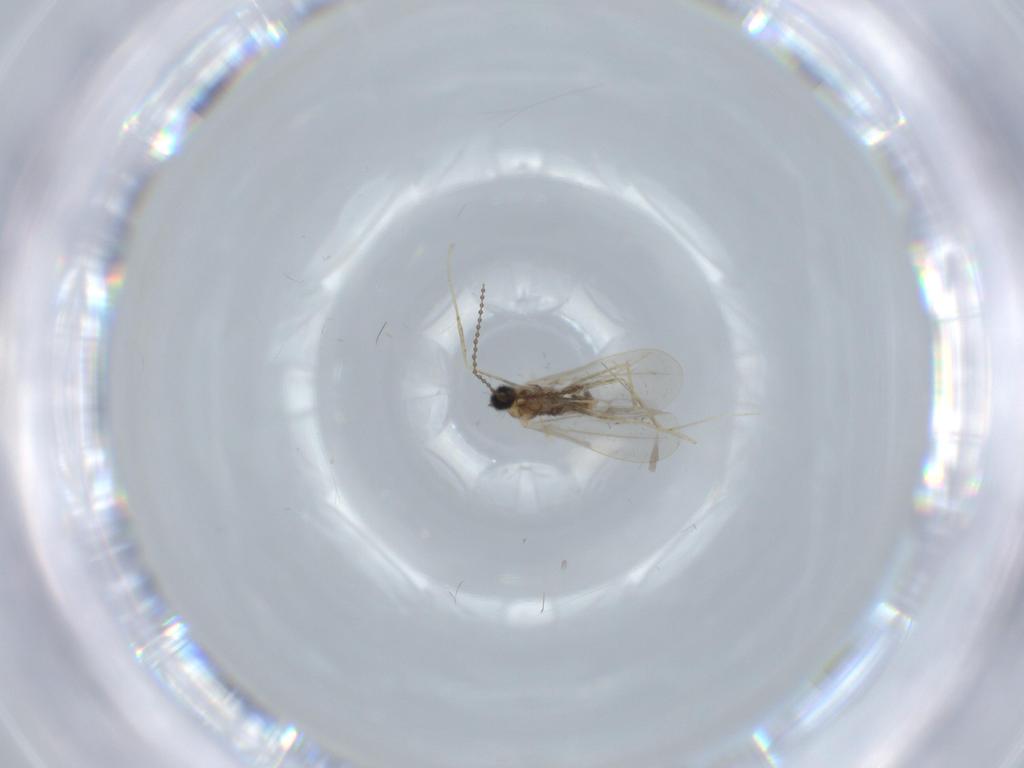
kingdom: Animalia
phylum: Arthropoda
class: Insecta
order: Diptera
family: Cecidomyiidae
